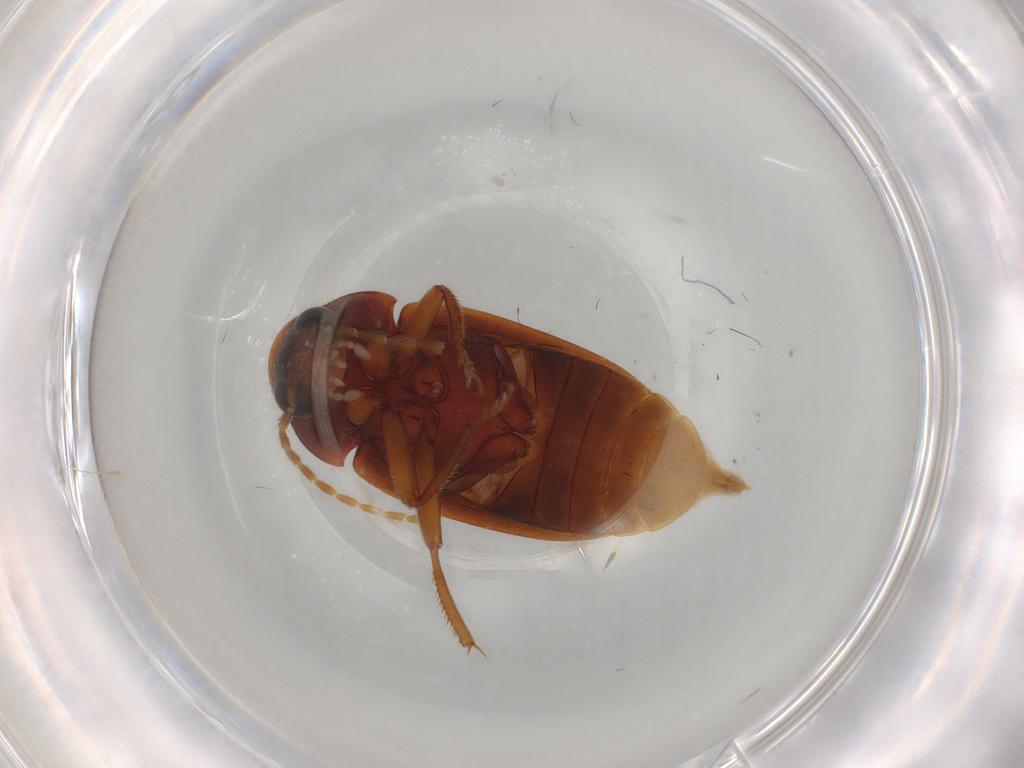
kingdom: Animalia
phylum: Arthropoda
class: Insecta
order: Coleoptera
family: Ptilodactylidae
